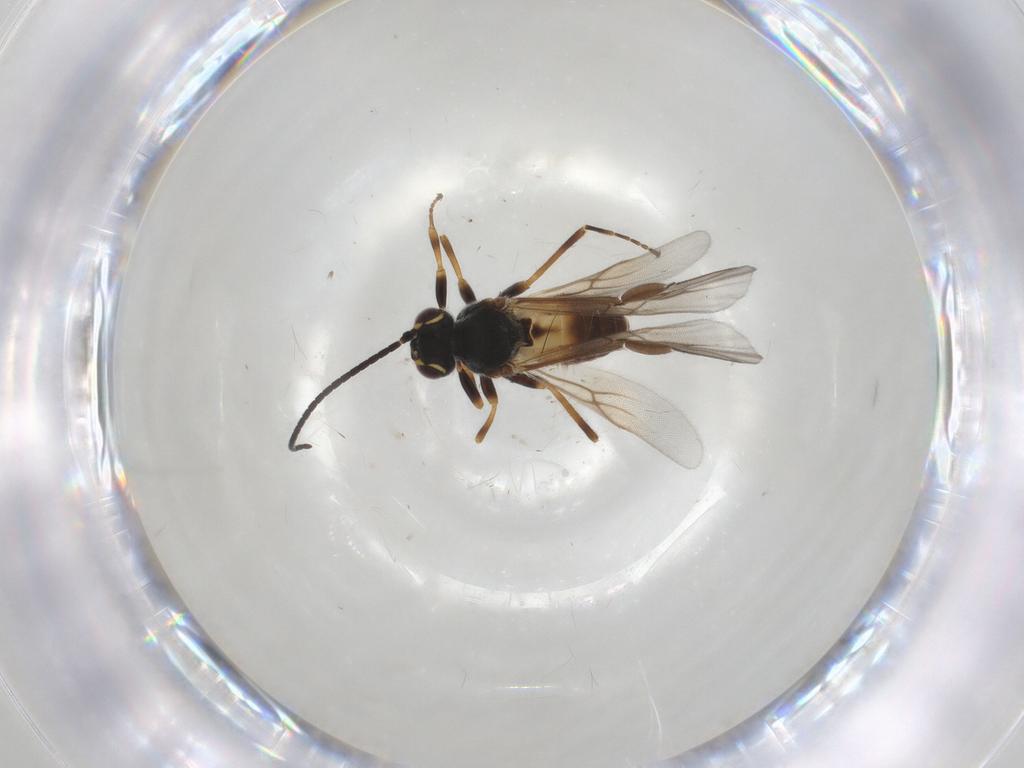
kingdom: Animalia
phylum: Arthropoda
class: Insecta
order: Hymenoptera
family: Braconidae
